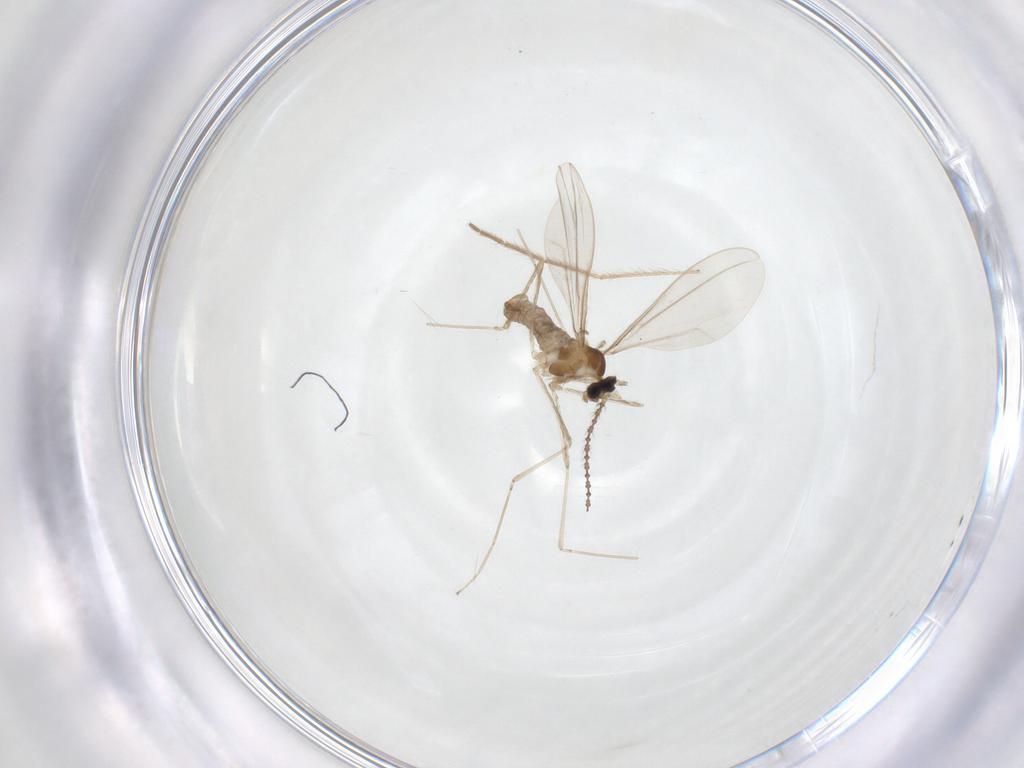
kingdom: Animalia
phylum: Arthropoda
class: Insecta
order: Diptera
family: Cecidomyiidae
